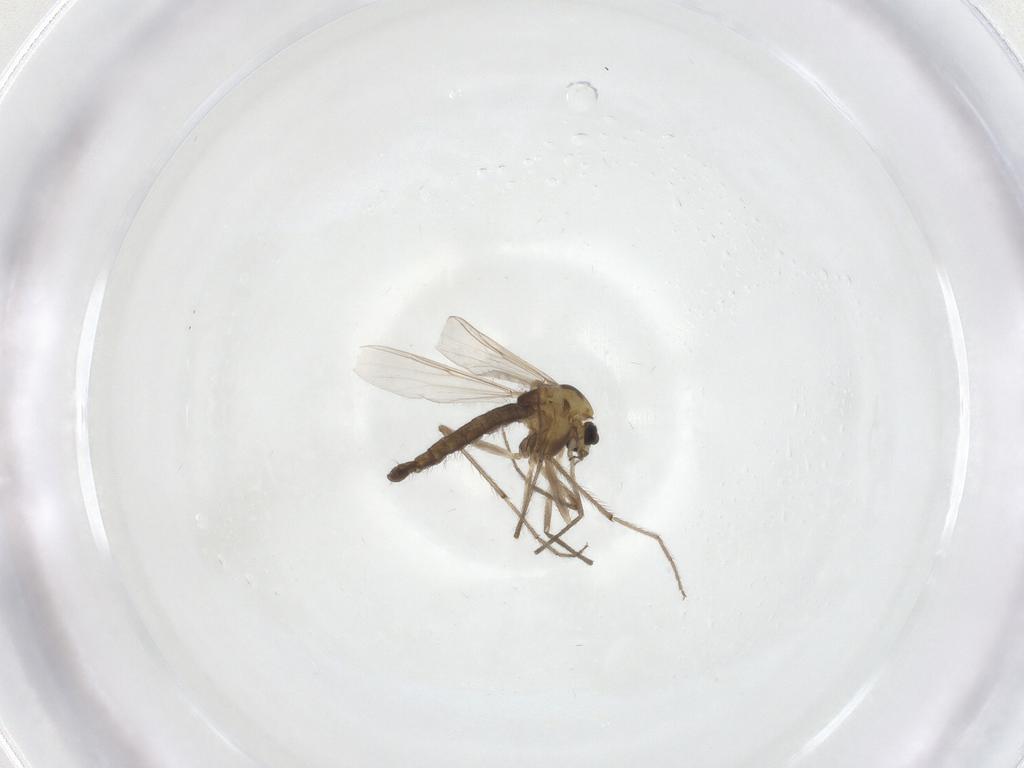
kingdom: Animalia
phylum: Arthropoda
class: Insecta
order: Diptera
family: Chironomidae
